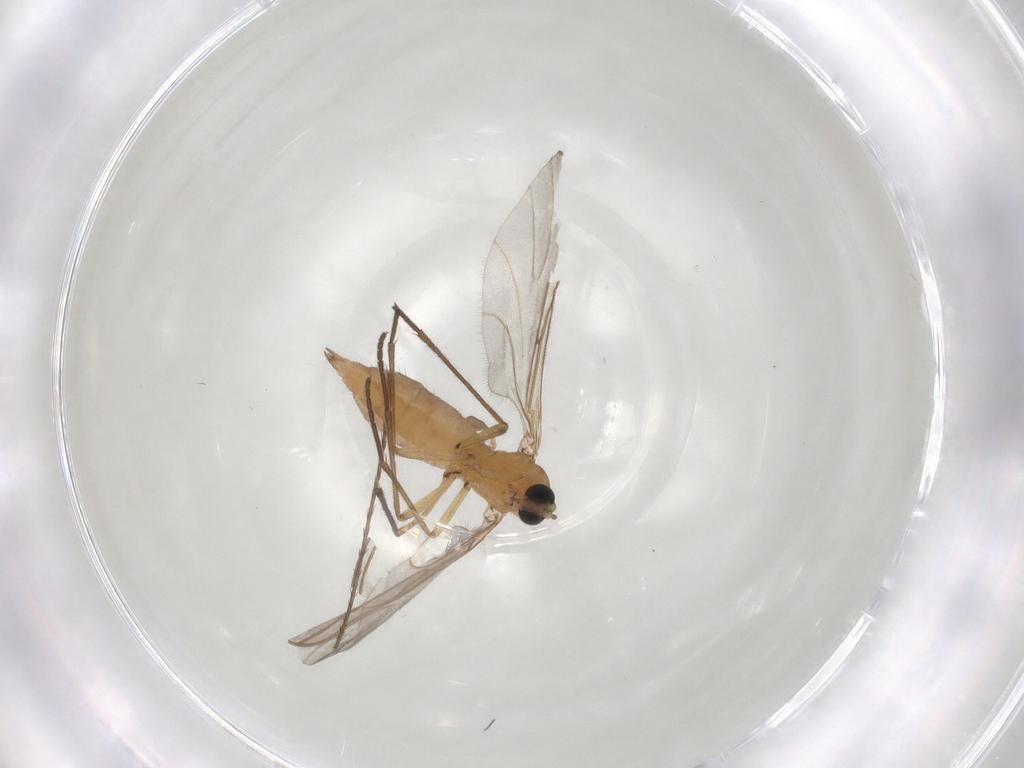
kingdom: Animalia
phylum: Arthropoda
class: Insecta
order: Diptera
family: Sciaridae
